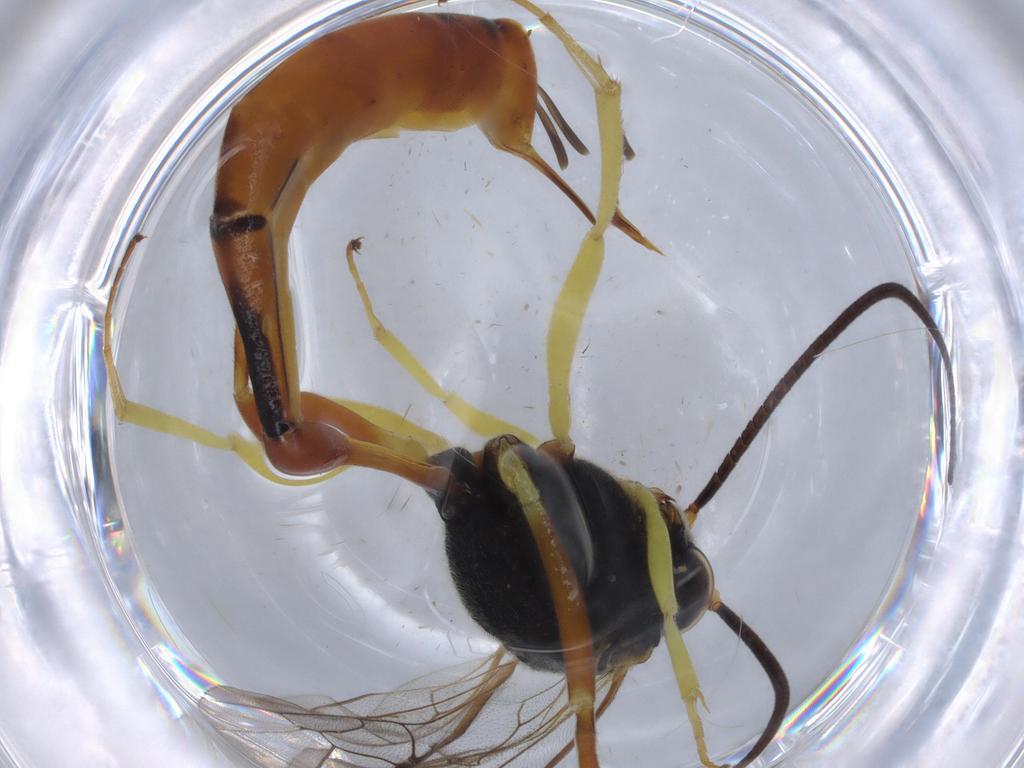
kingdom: Animalia
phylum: Arthropoda
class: Insecta
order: Hymenoptera
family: Ichneumonidae
